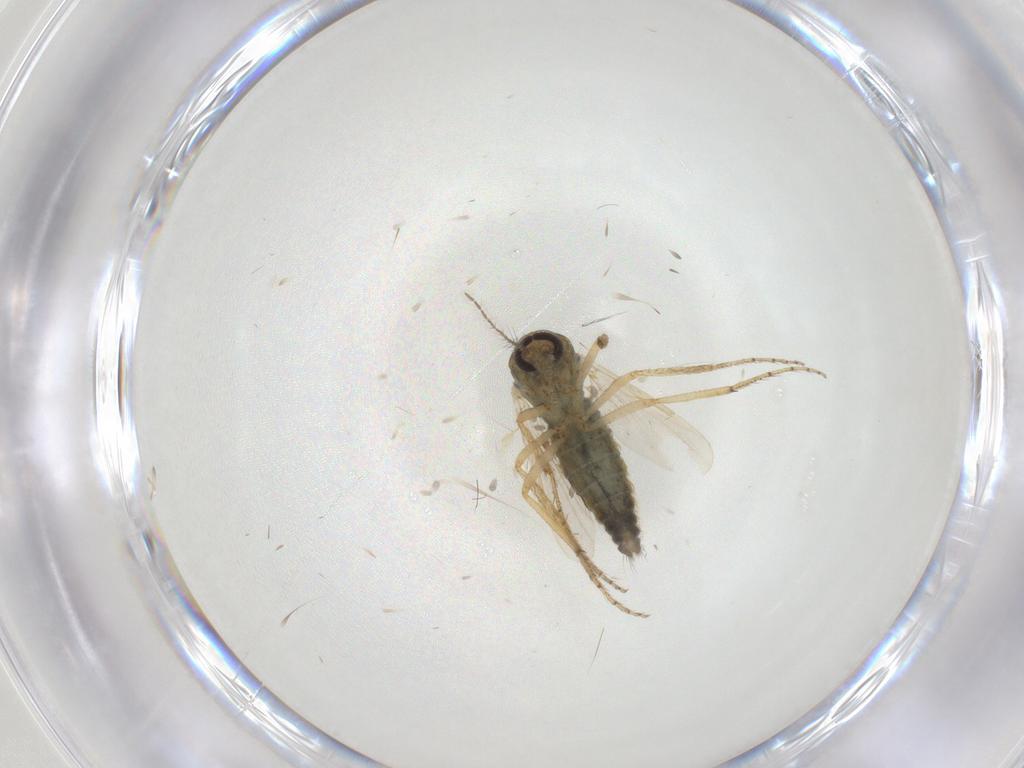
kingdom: Animalia
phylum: Arthropoda
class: Insecta
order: Diptera
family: Ceratopogonidae
